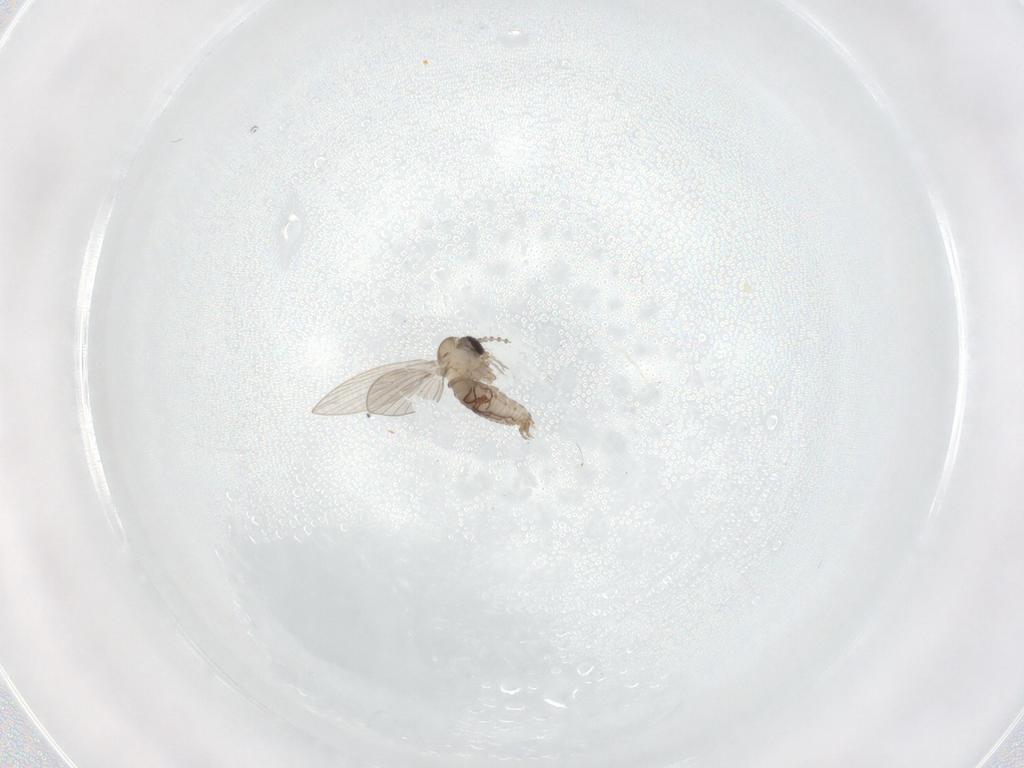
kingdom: Animalia
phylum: Arthropoda
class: Insecta
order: Diptera
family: Psychodidae
